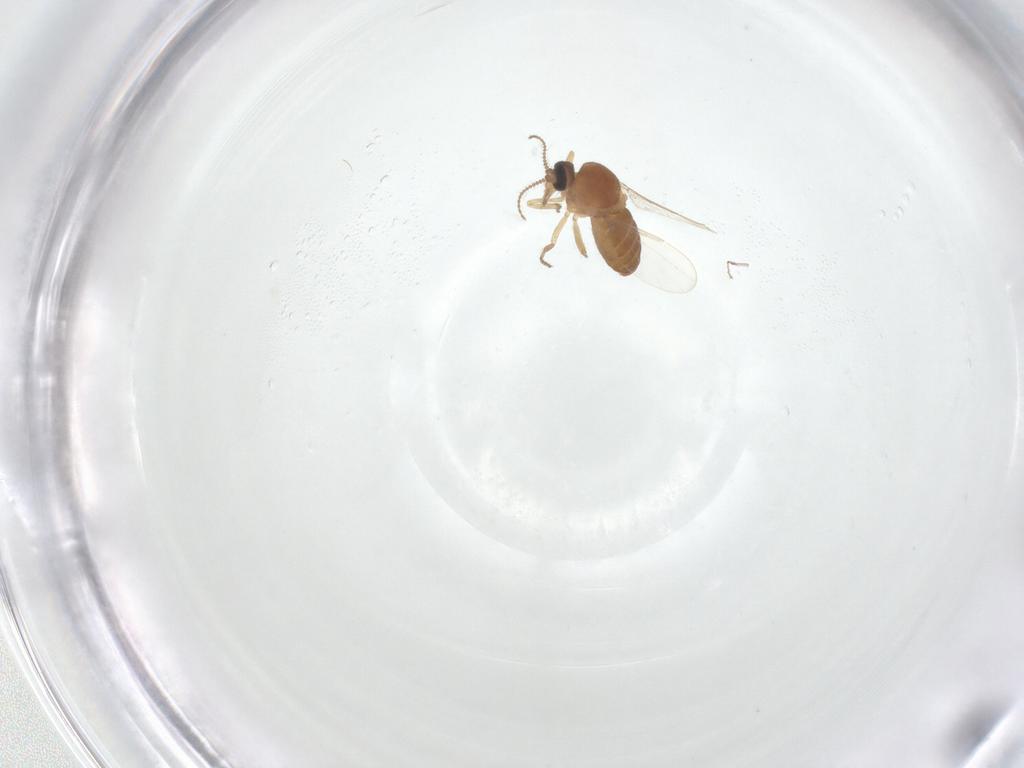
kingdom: Animalia
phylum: Arthropoda
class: Insecta
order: Diptera
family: Ceratopogonidae
